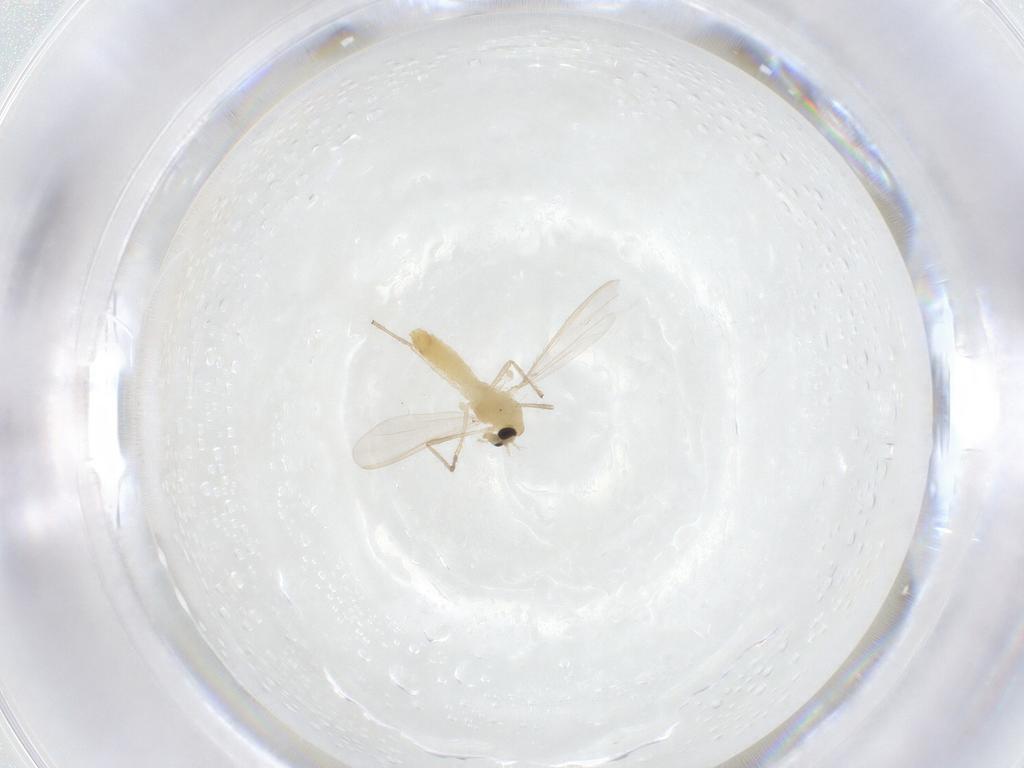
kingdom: Animalia
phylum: Arthropoda
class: Insecta
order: Diptera
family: Chironomidae
